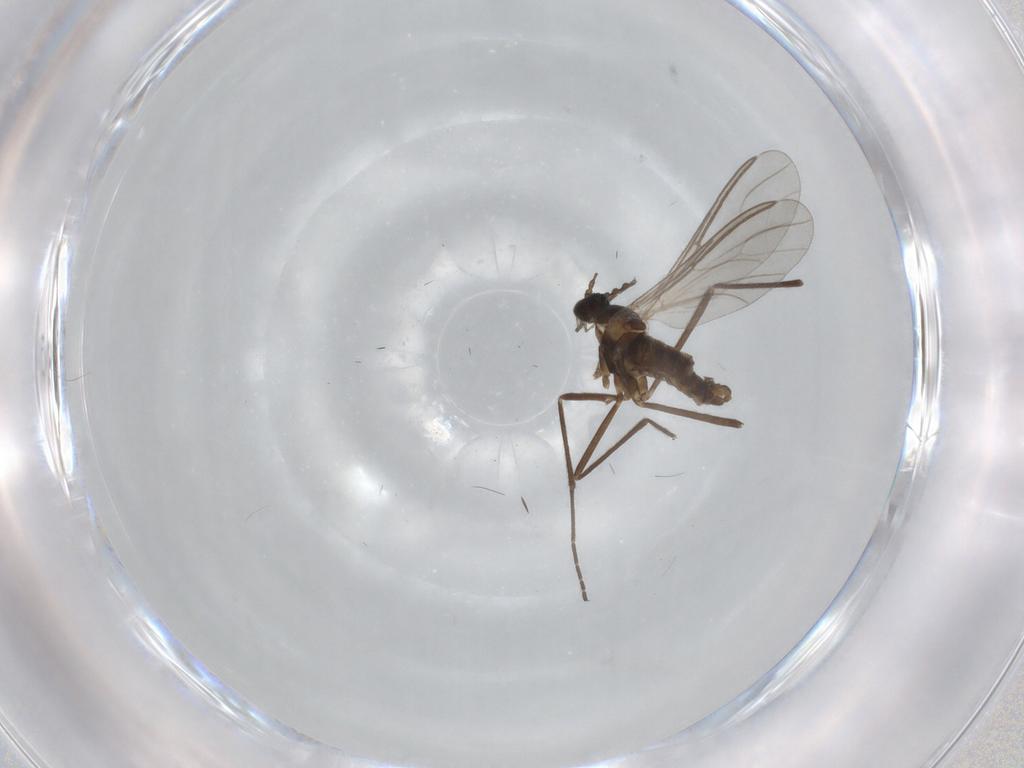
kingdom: Animalia
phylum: Arthropoda
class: Insecta
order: Diptera
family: Cecidomyiidae
